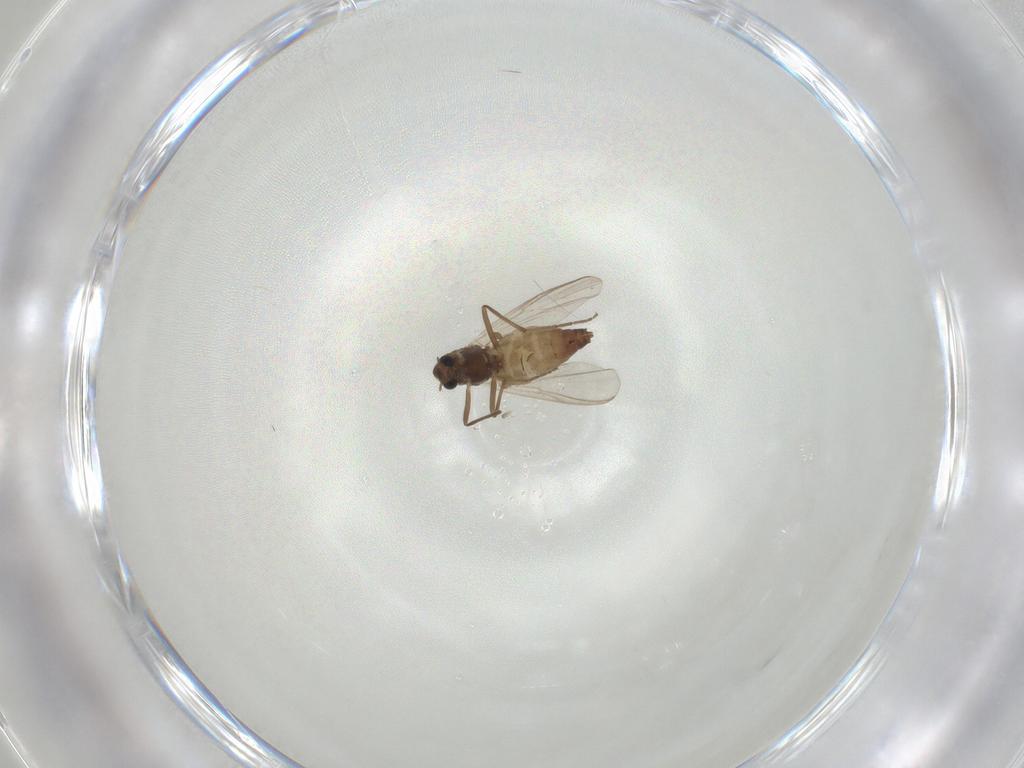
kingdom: Animalia
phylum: Arthropoda
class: Insecta
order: Diptera
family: Chironomidae
